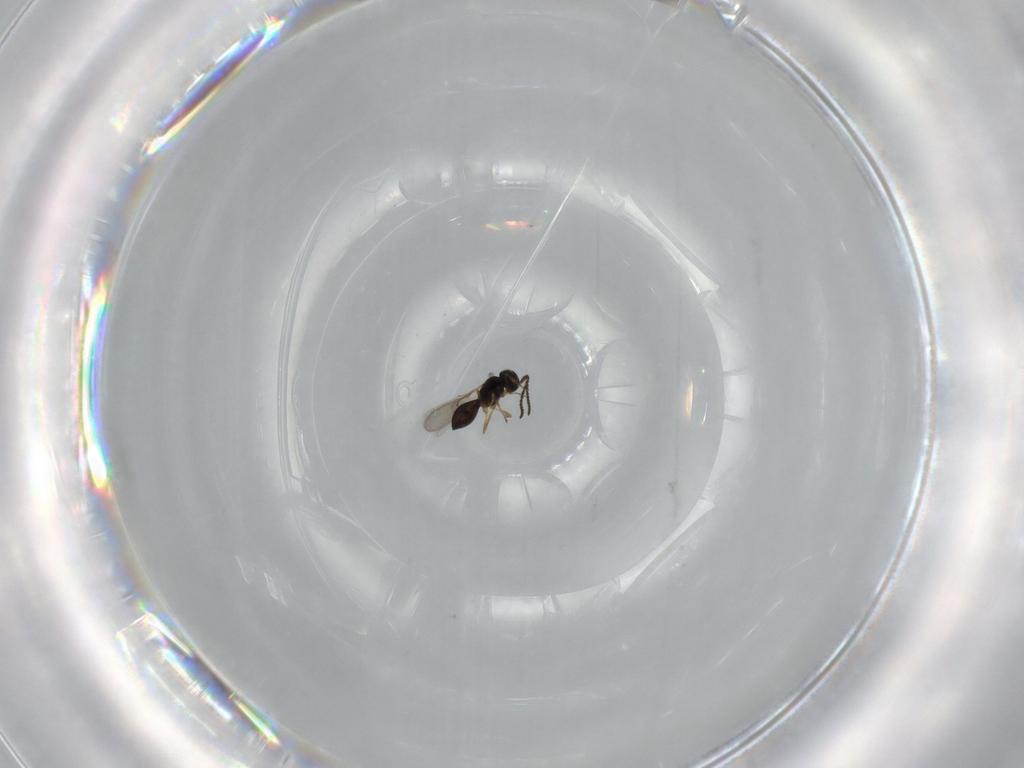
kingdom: Animalia
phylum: Arthropoda
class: Insecta
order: Hymenoptera
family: Scelionidae
